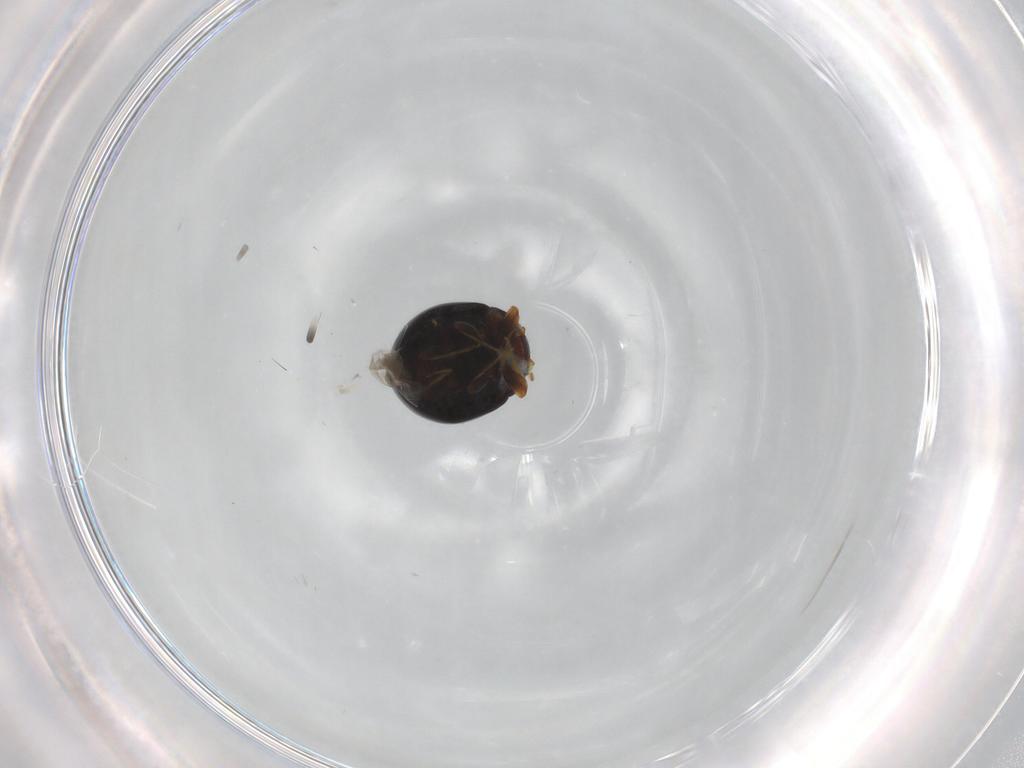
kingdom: Animalia
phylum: Arthropoda
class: Insecta
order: Coleoptera
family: Coccinellidae
